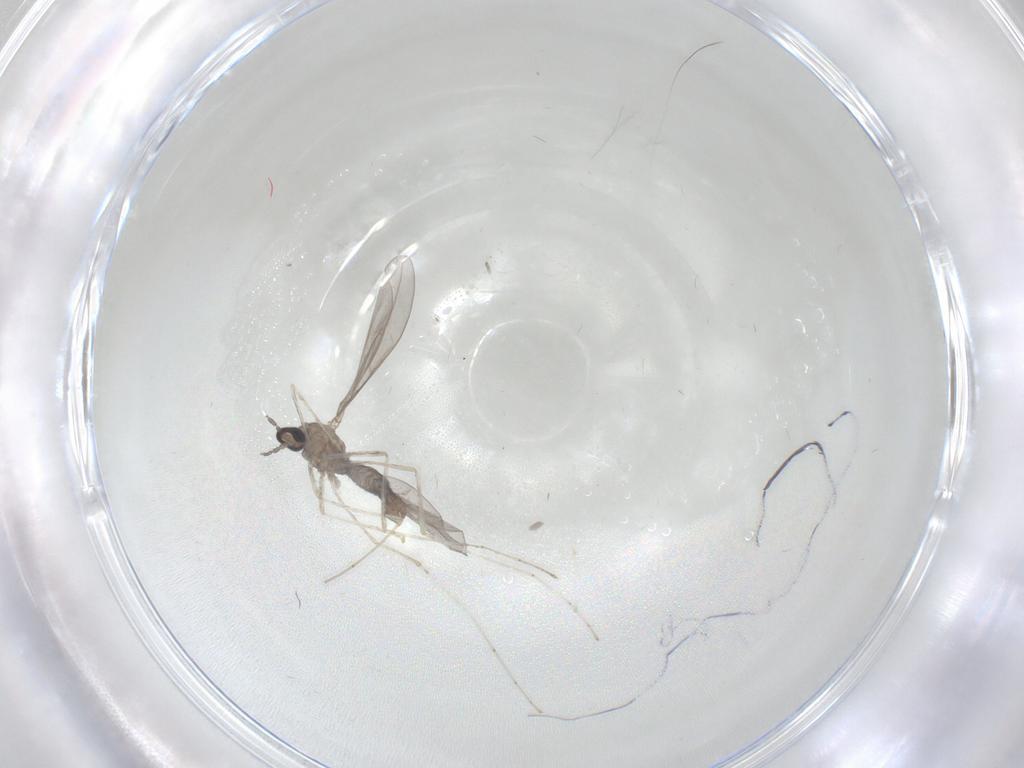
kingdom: Animalia
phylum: Arthropoda
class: Insecta
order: Diptera
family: Cecidomyiidae
